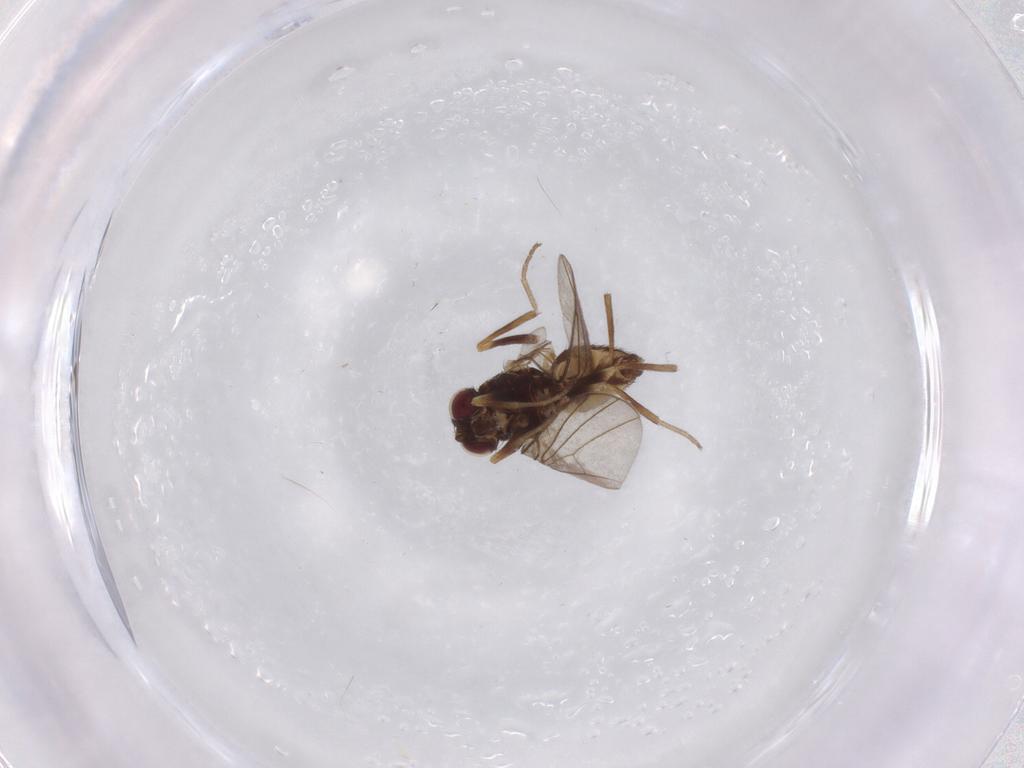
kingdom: Animalia
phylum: Arthropoda
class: Insecta
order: Diptera
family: Agromyzidae
